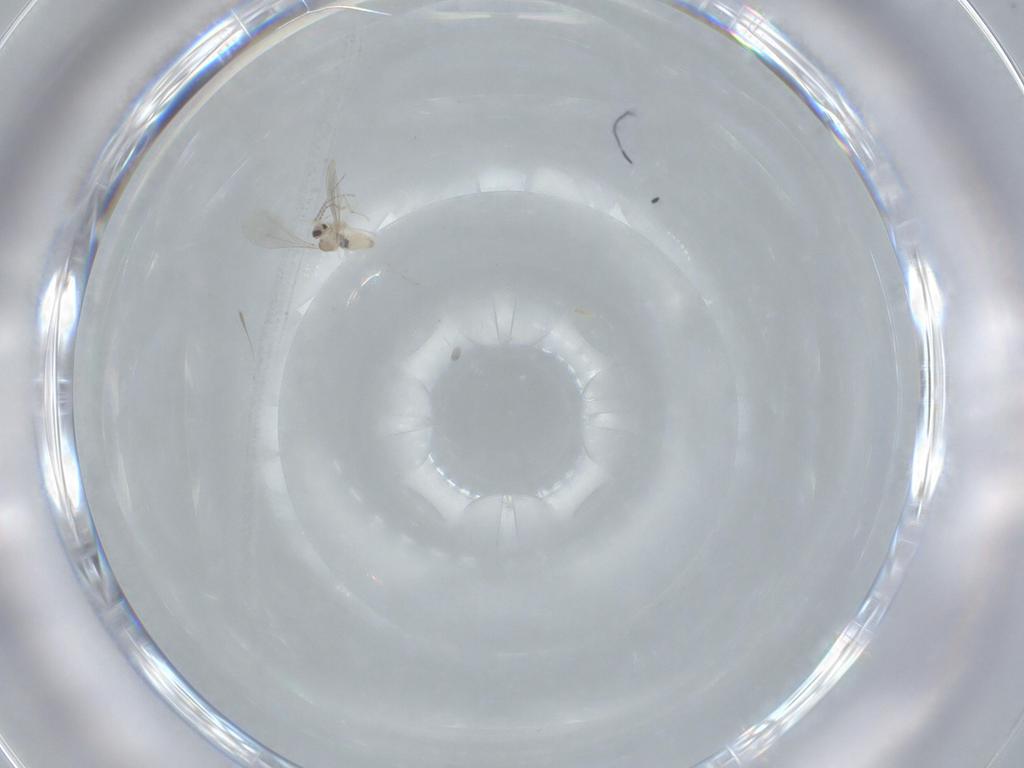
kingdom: Animalia
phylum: Arthropoda
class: Insecta
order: Diptera
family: Cecidomyiidae
